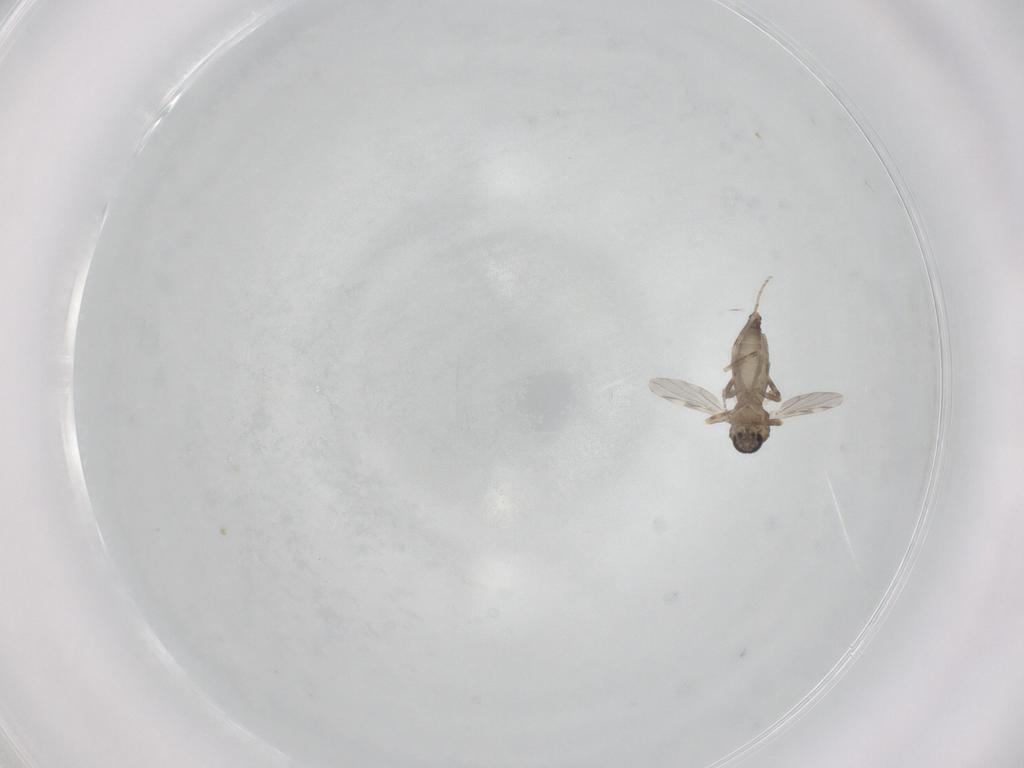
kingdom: Animalia
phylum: Arthropoda
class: Insecta
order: Diptera
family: Ceratopogonidae
